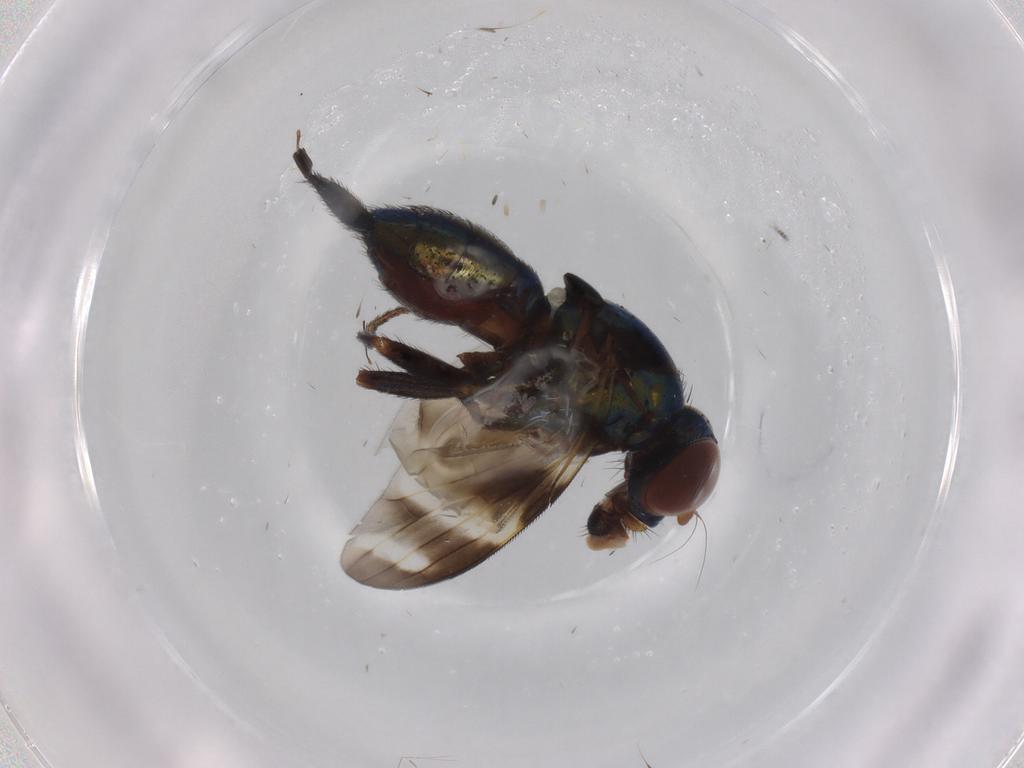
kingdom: Animalia
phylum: Arthropoda
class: Insecta
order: Diptera
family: Ulidiidae
